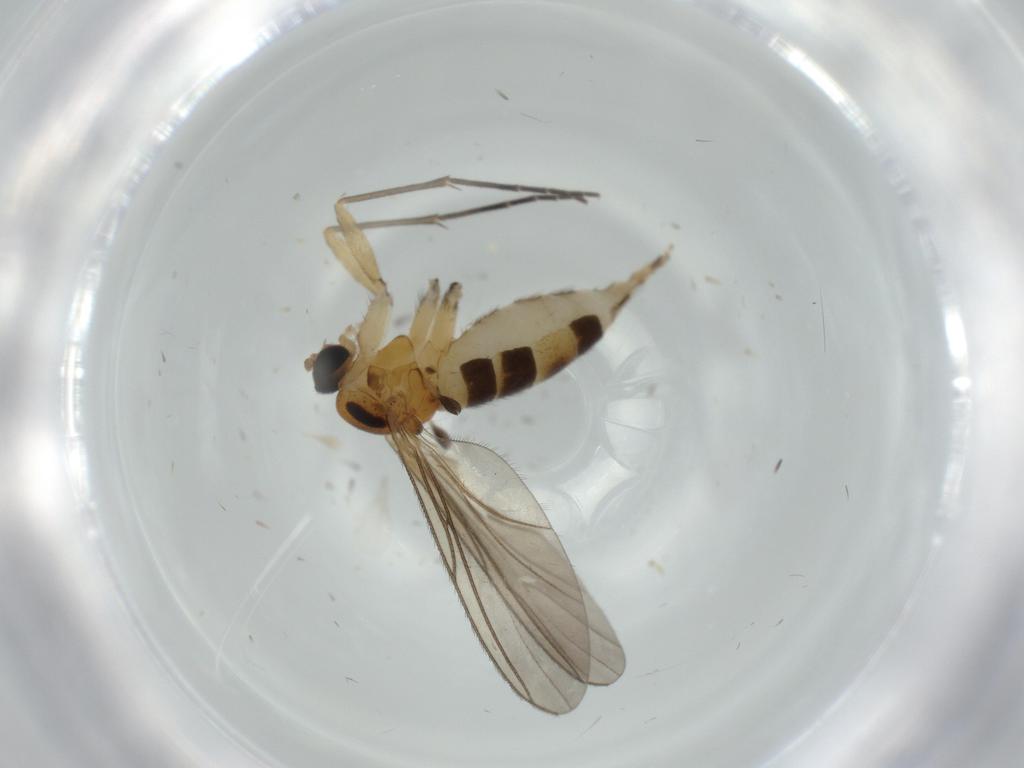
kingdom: Animalia
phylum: Arthropoda
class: Insecta
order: Diptera
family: Sciaridae
